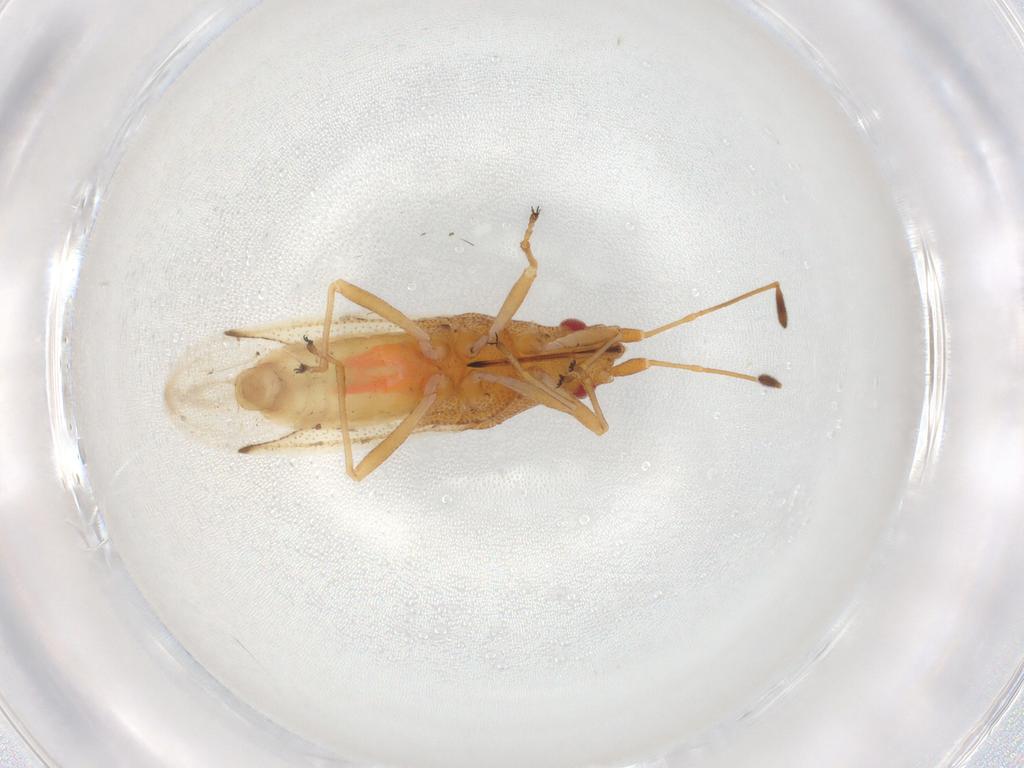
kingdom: Animalia
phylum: Arthropoda
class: Insecta
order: Hemiptera
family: Cymidae
